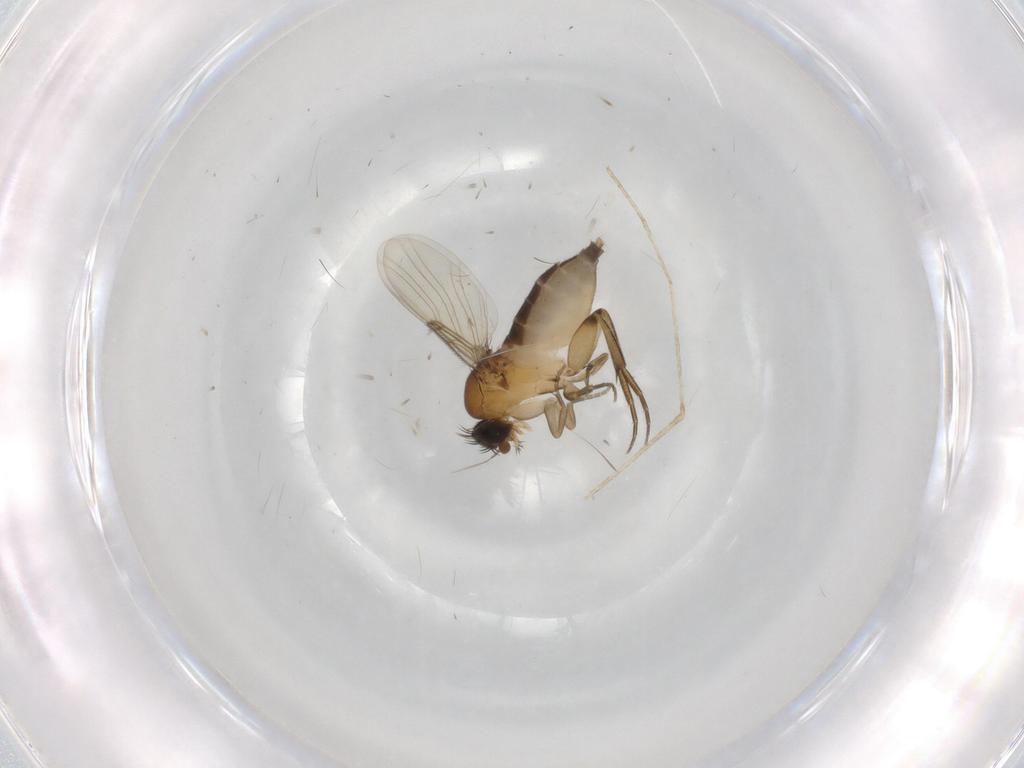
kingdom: Animalia
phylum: Arthropoda
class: Insecta
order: Diptera
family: Phoridae
